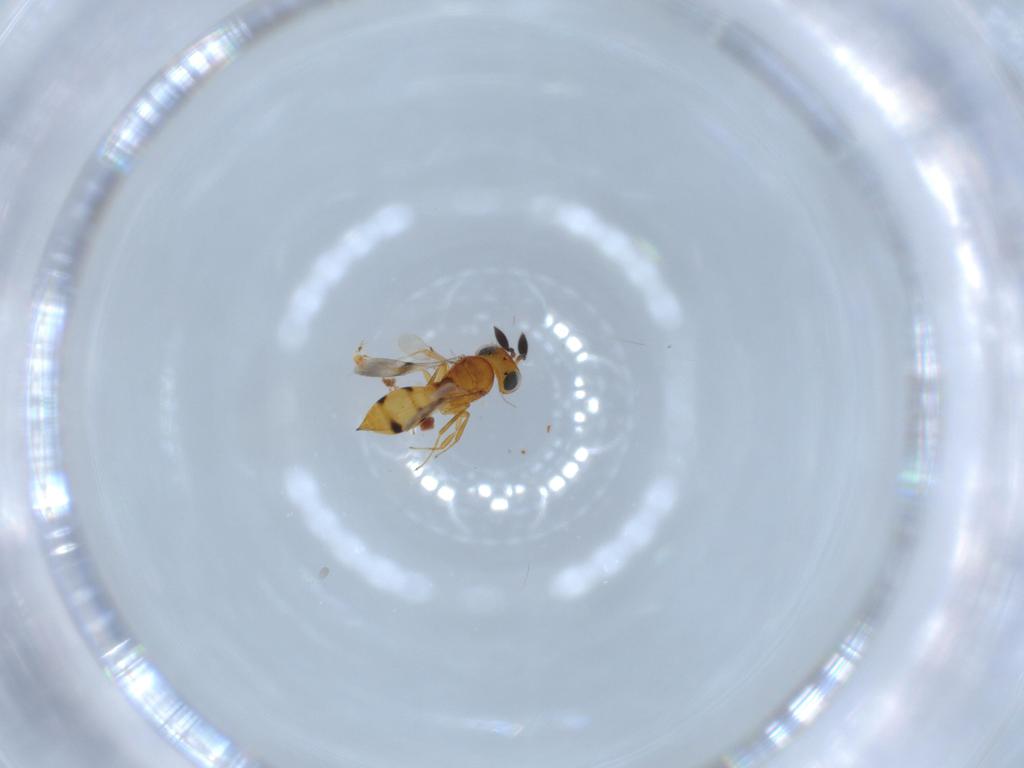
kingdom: Animalia
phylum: Arthropoda
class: Insecta
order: Hymenoptera
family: Scelionidae
